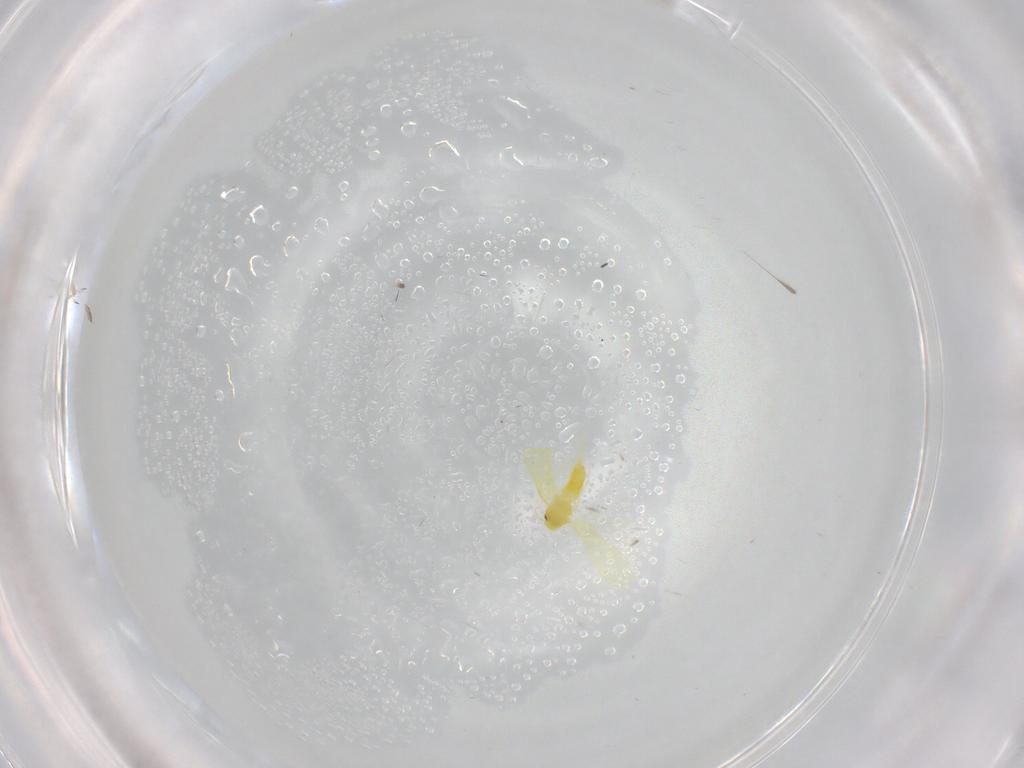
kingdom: Animalia
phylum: Arthropoda
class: Insecta
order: Hemiptera
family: Aleyrodidae
